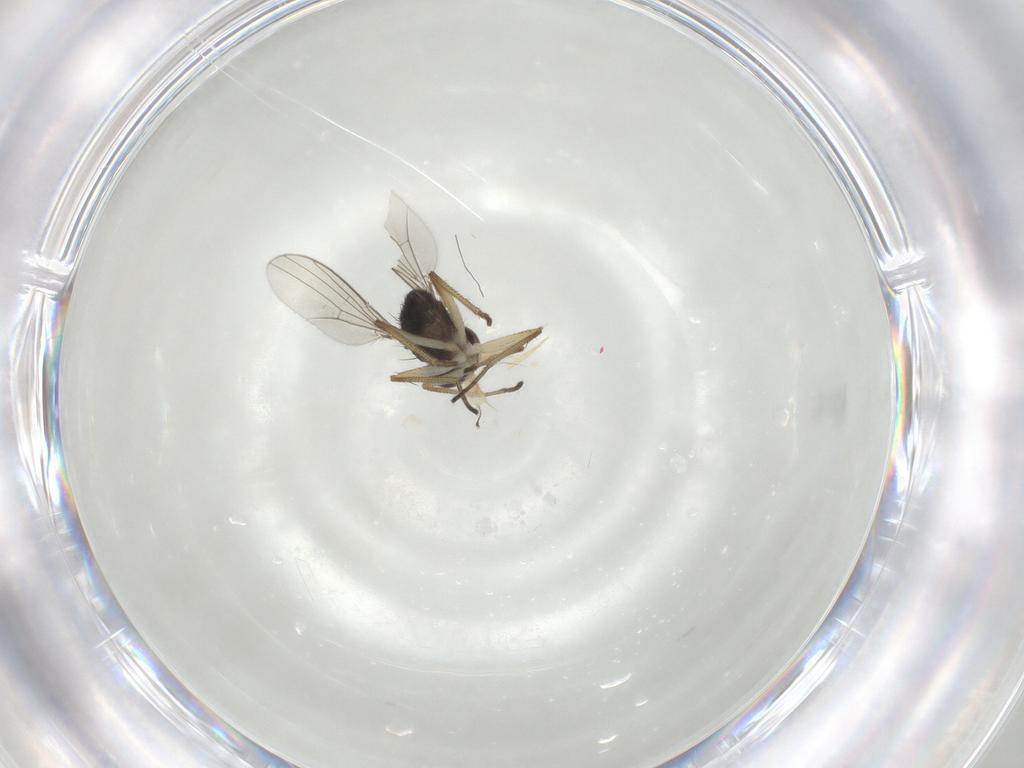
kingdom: Animalia
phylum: Arthropoda
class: Insecta
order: Diptera
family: Dolichopodidae
